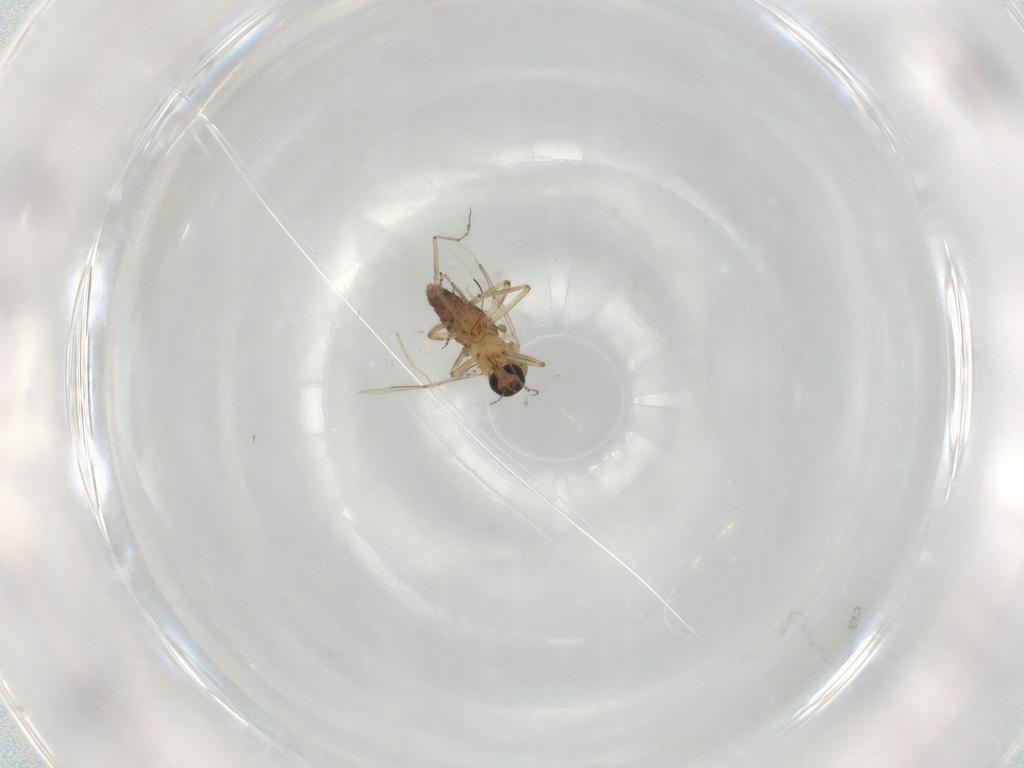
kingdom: Animalia
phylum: Arthropoda
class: Insecta
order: Diptera
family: Ceratopogonidae
